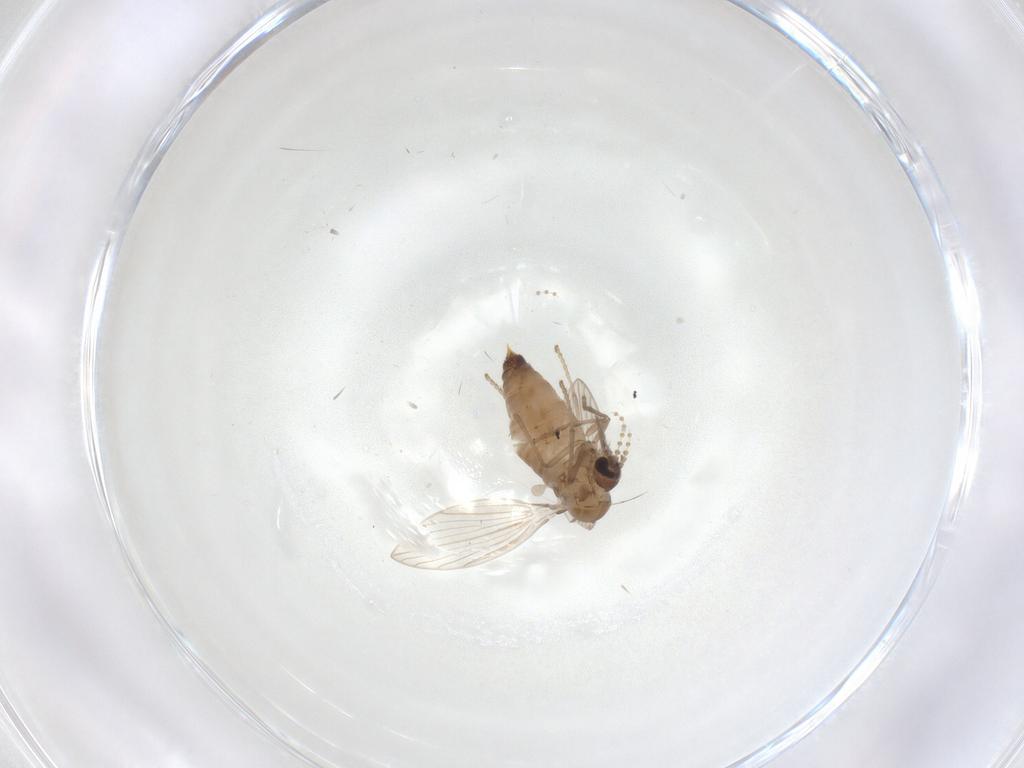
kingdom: Animalia
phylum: Arthropoda
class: Insecta
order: Diptera
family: Psychodidae
